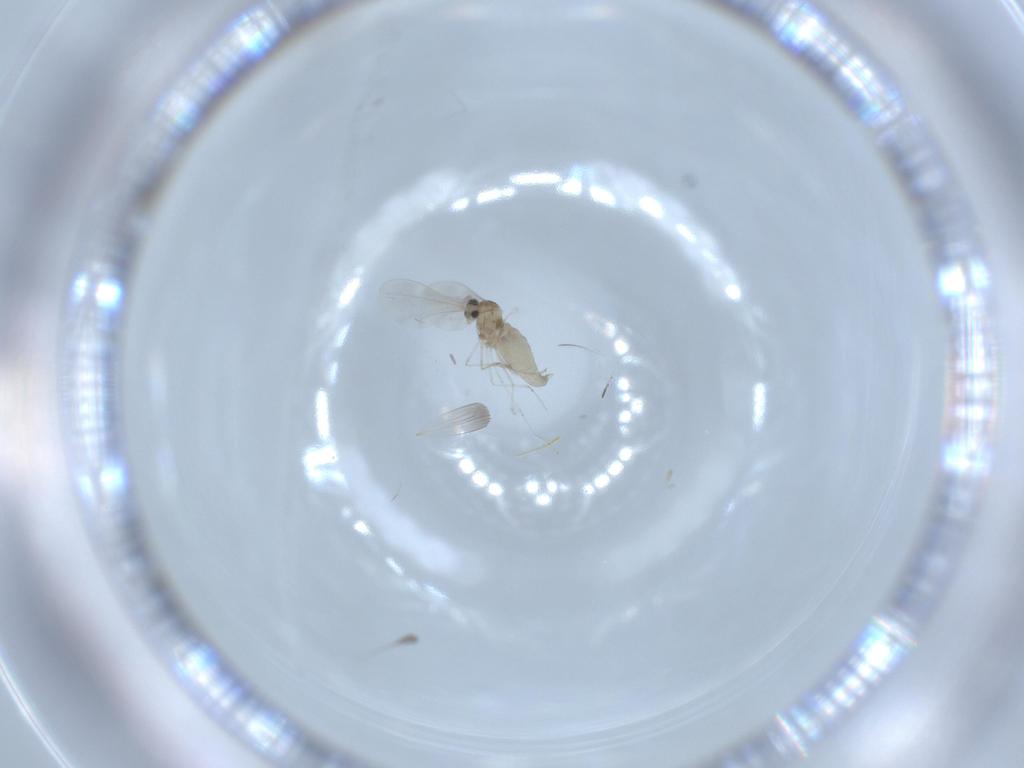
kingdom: Animalia
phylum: Arthropoda
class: Insecta
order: Diptera
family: Cecidomyiidae
